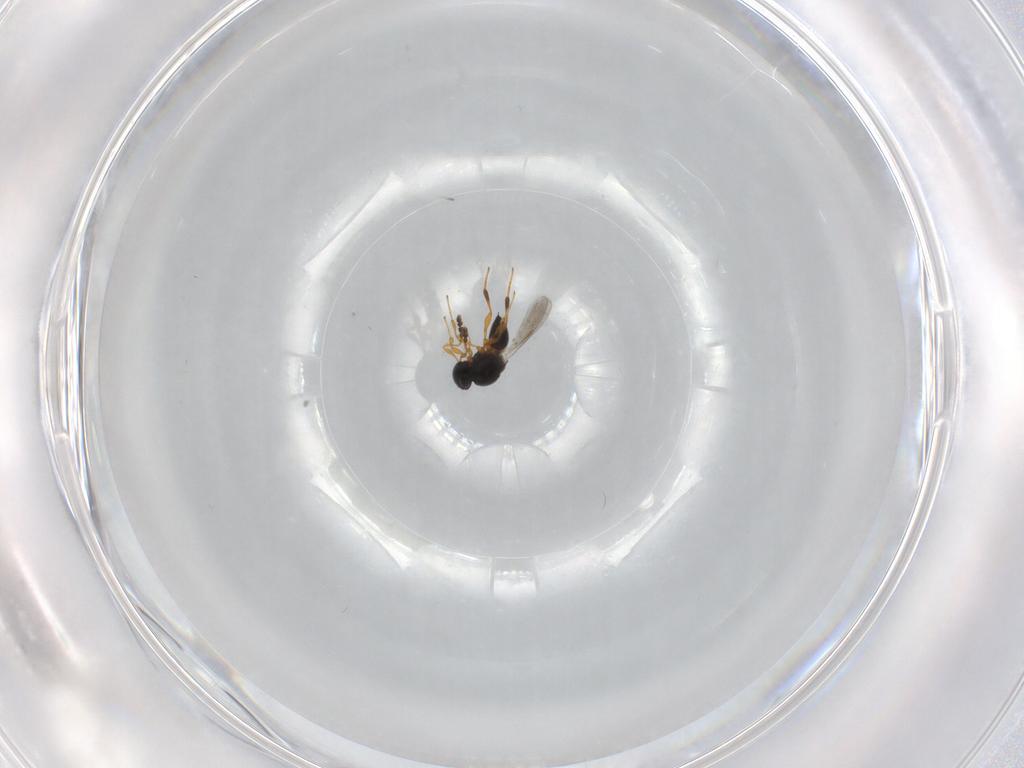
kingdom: Animalia
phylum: Arthropoda
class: Insecta
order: Hymenoptera
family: Platygastridae
